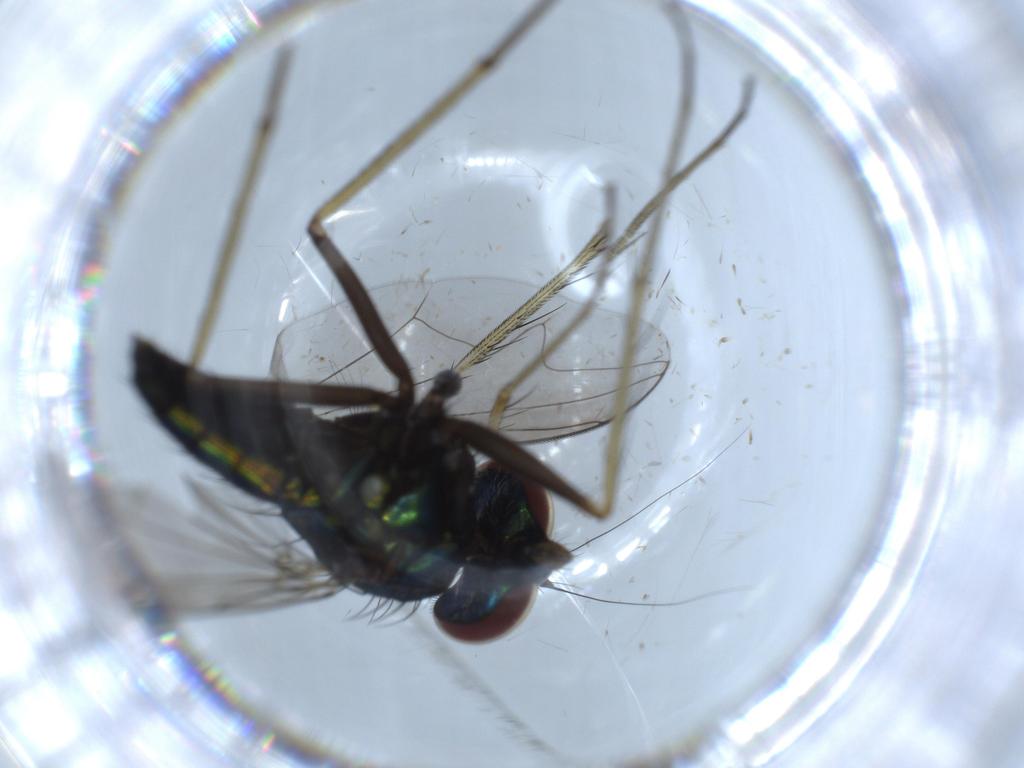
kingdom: Animalia
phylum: Arthropoda
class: Insecta
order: Diptera
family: Dolichopodidae
